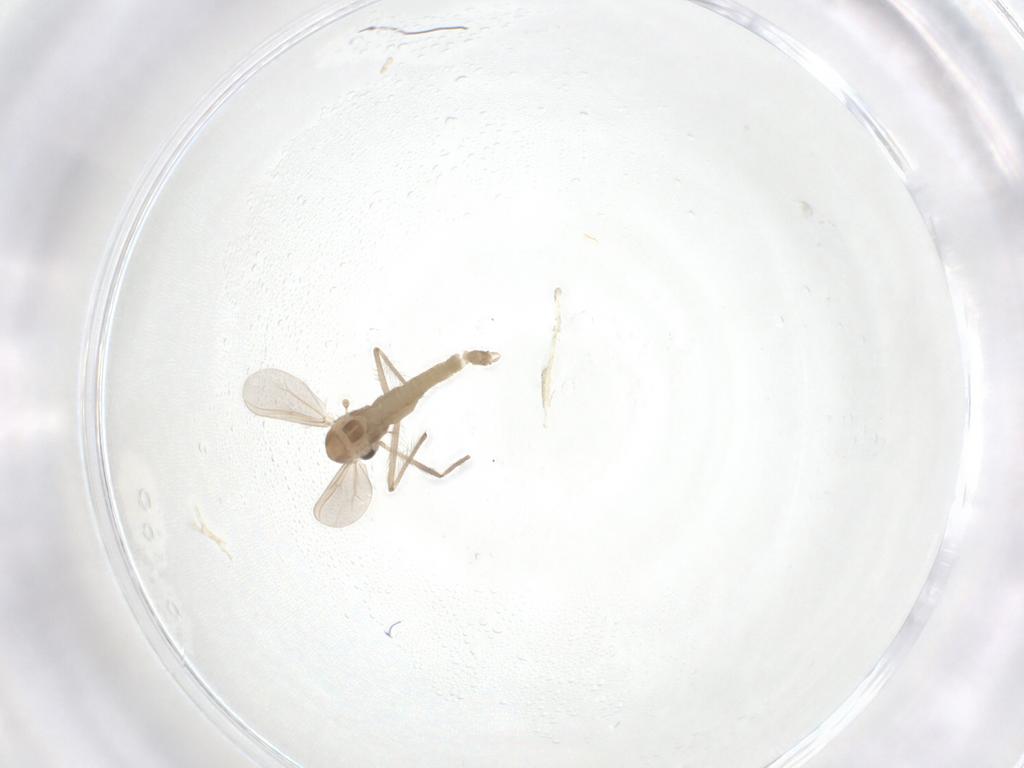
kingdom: Animalia
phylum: Arthropoda
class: Insecta
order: Diptera
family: Chironomidae
